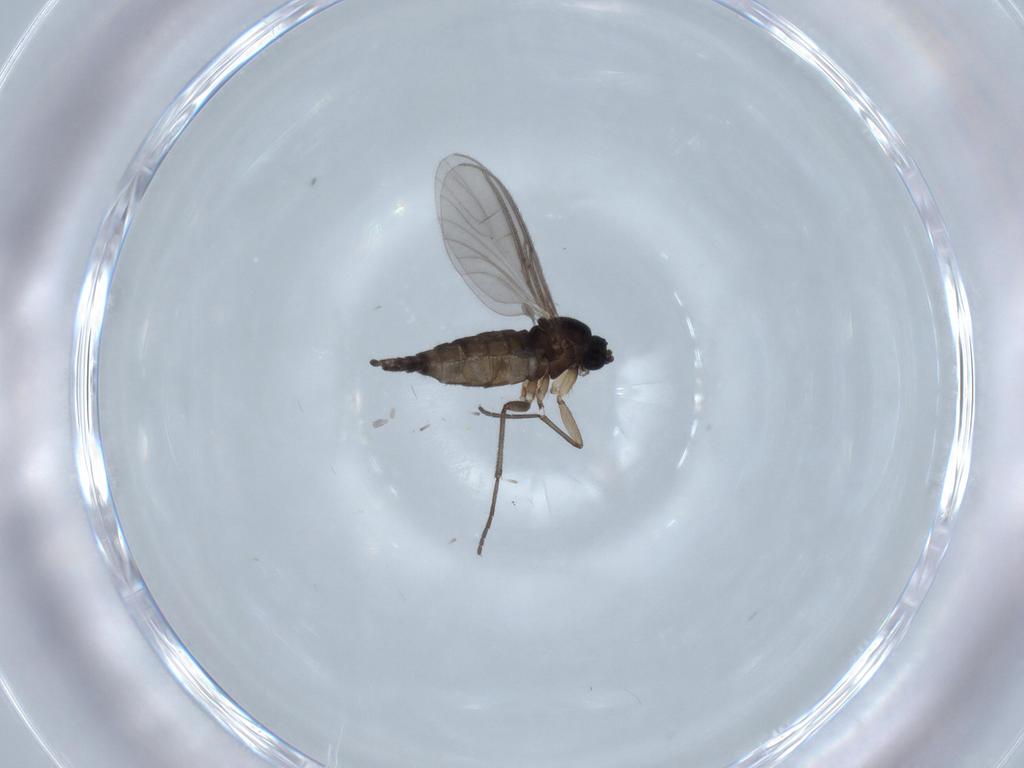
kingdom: Animalia
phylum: Arthropoda
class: Insecta
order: Diptera
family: Sciaridae
